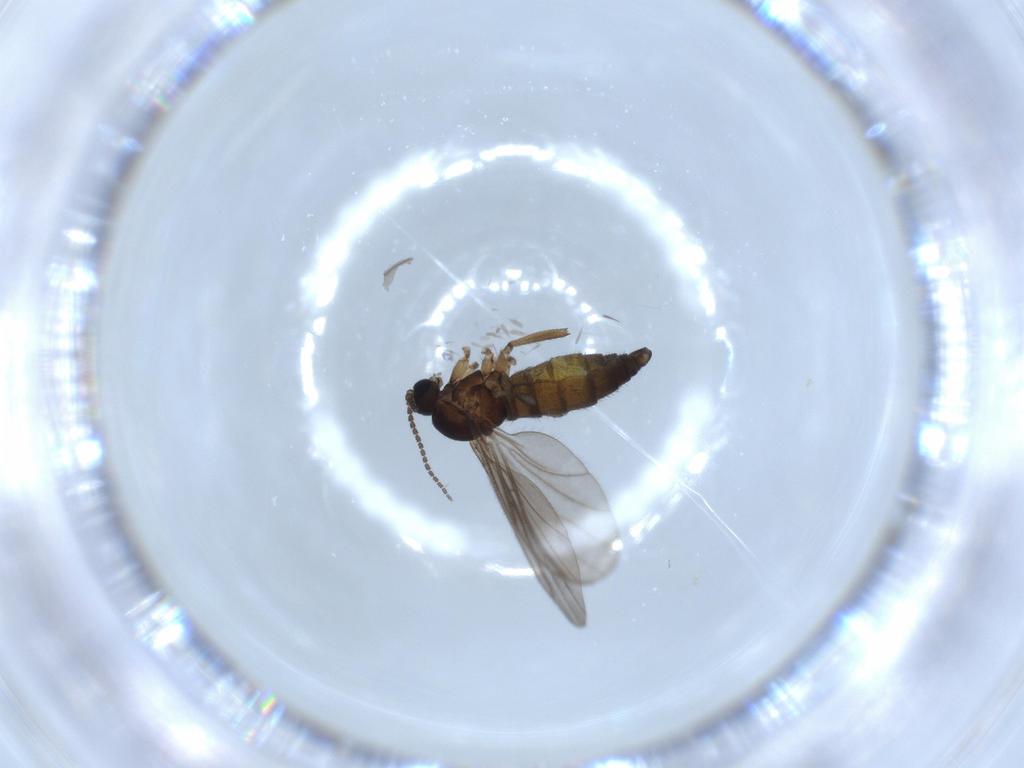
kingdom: Animalia
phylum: Arthropoda
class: Insecta
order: Diptera
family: Sciaridae
